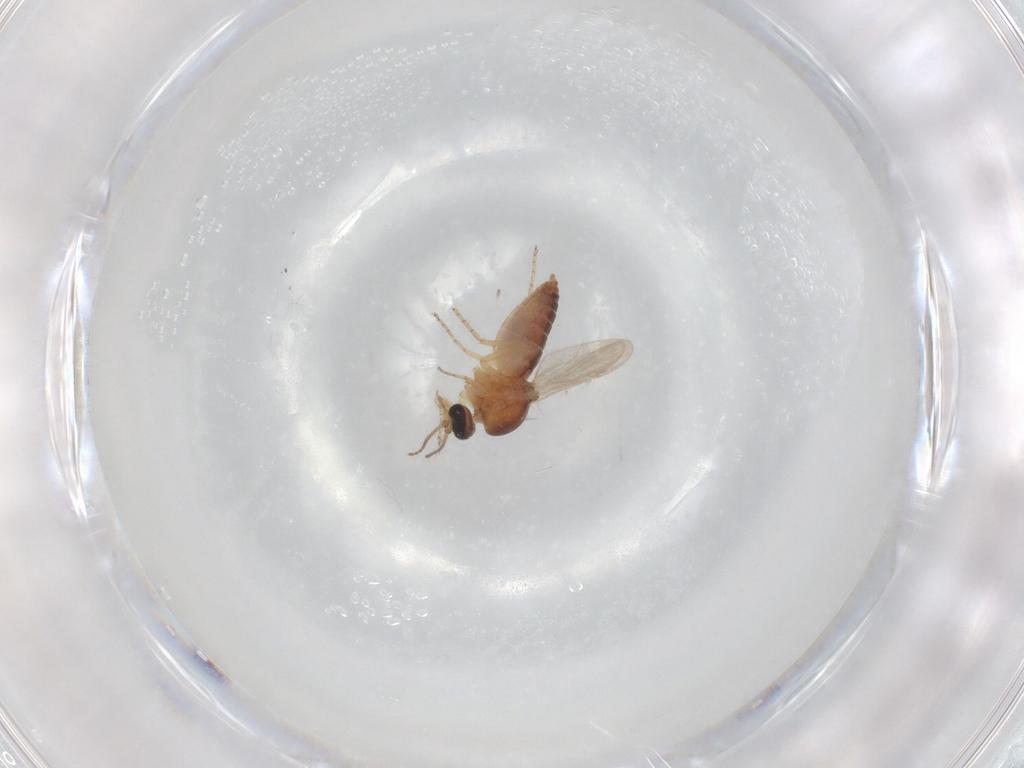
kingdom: Animalia
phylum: Arthropoda
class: Insecta
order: Diptera
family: Ceratopogonidae
